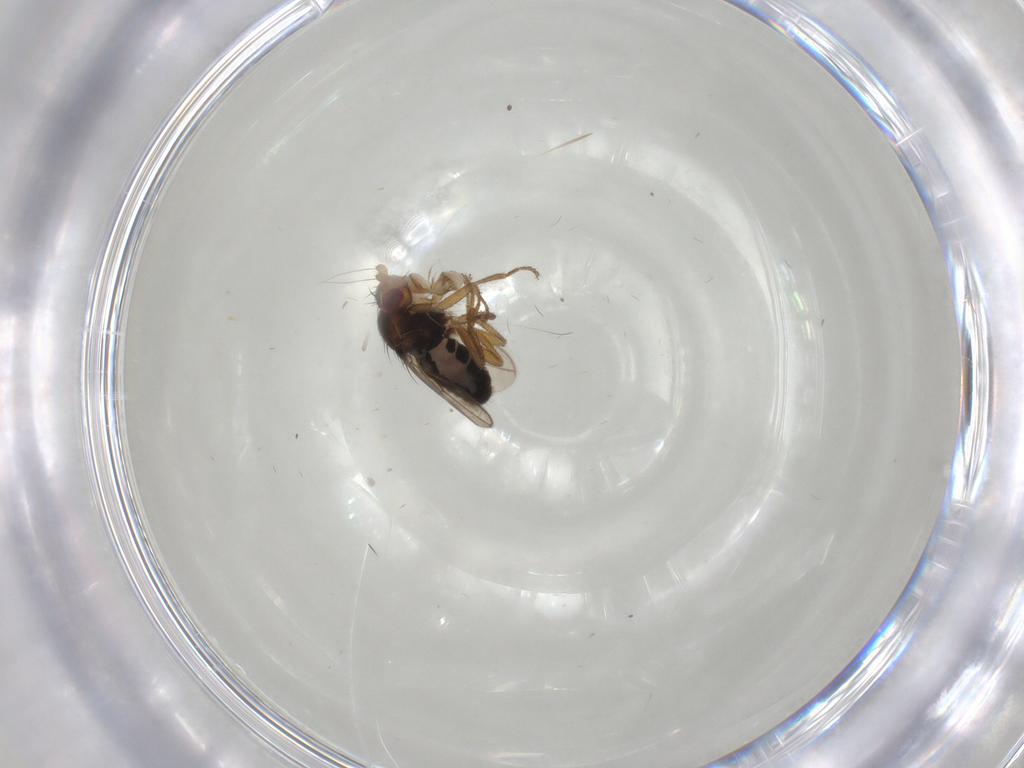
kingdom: Animalia
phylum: Arthropoda
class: Insecta
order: Diptera
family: Sphaeroceridae
